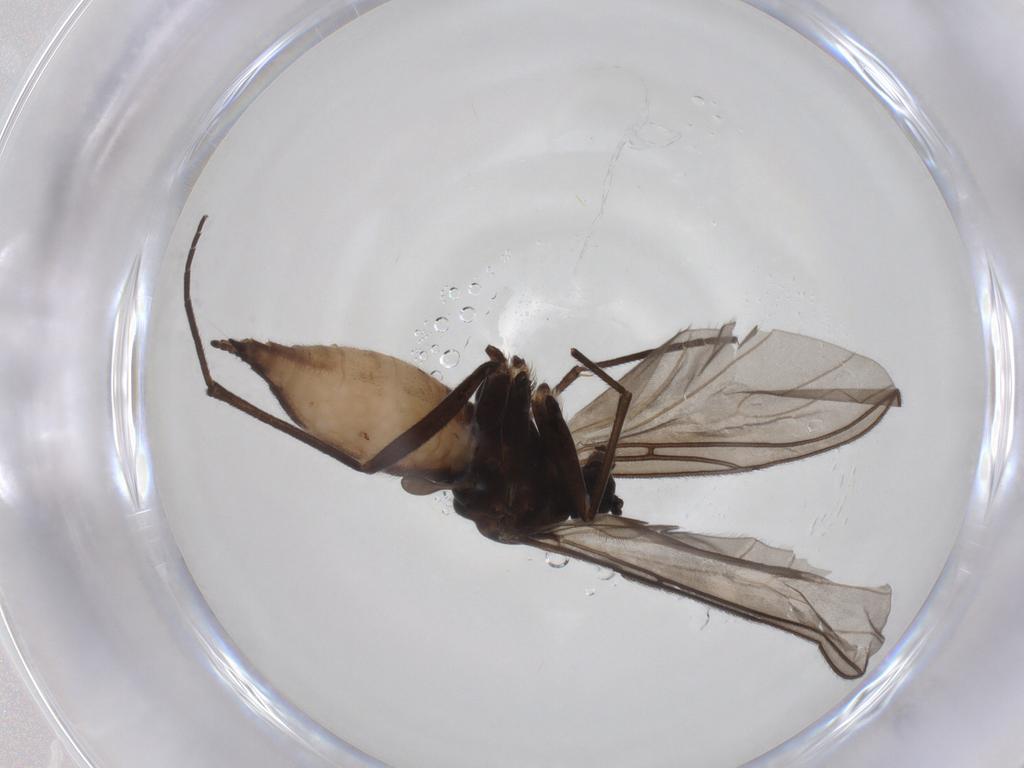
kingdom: Animalia
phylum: Arthropoda
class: Insecta
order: Diptera
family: Sciaridae
